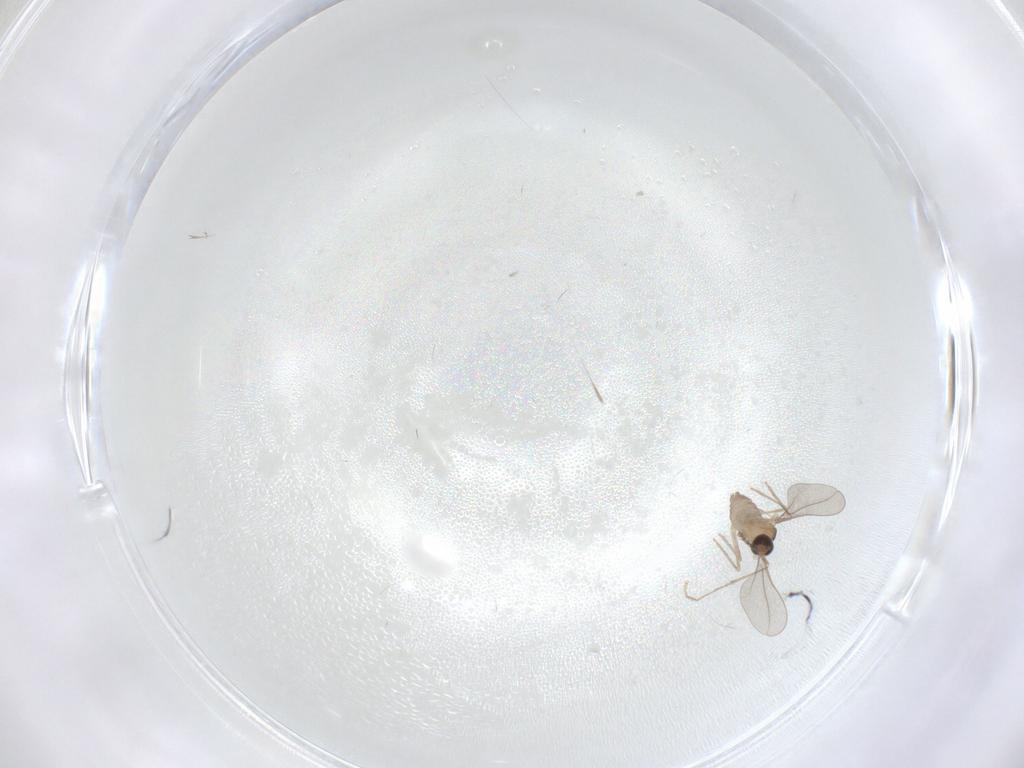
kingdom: Animalia
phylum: Arthropoda
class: Insecta
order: Diptera
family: Cecidomyiidae
